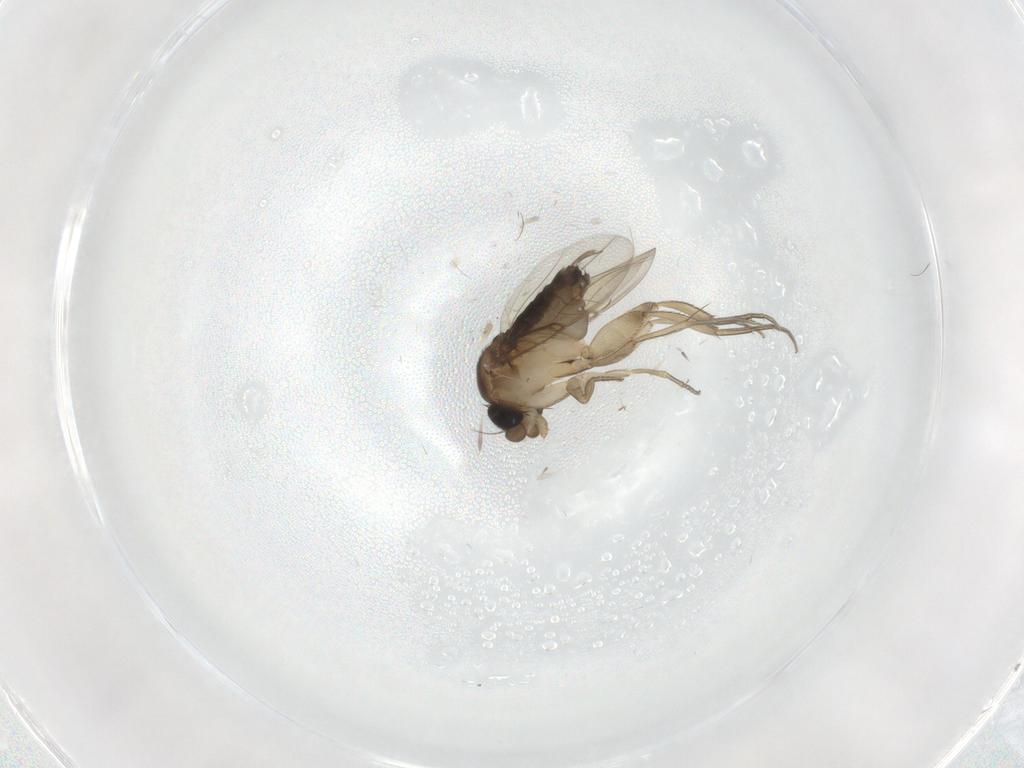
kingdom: Animalia
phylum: Arthropoda
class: Insecta
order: Diptera
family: Phoridae
